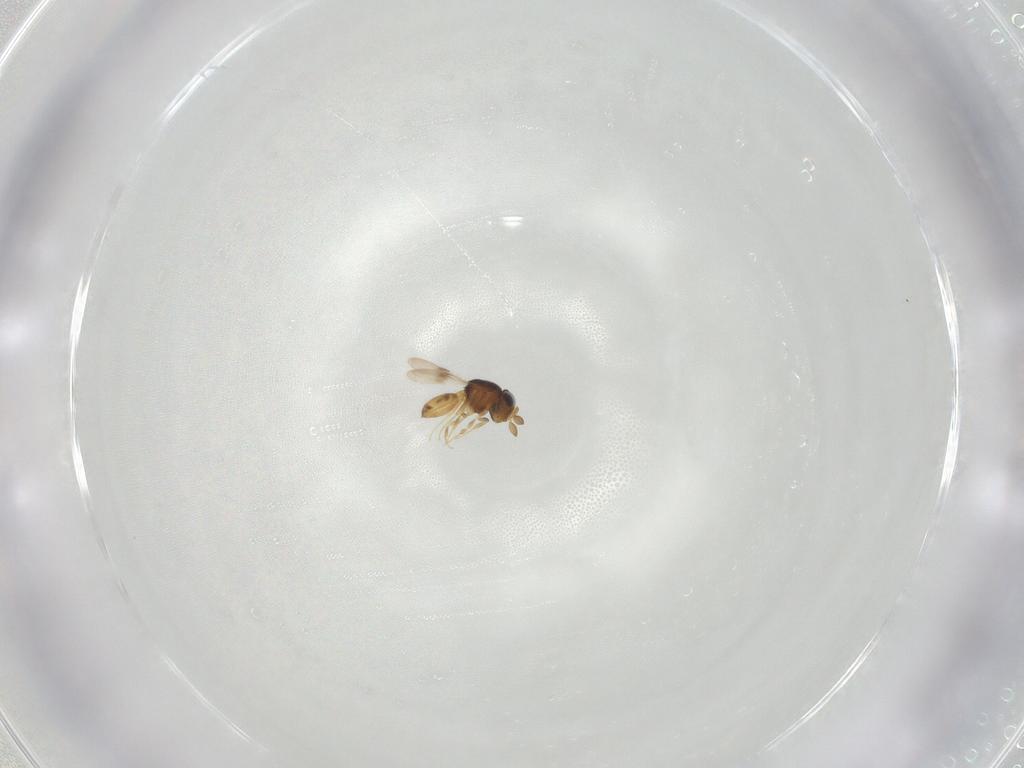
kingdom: Animalia
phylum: Arthropoda
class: Insecta
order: Hymenoptera
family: Scelionidae
